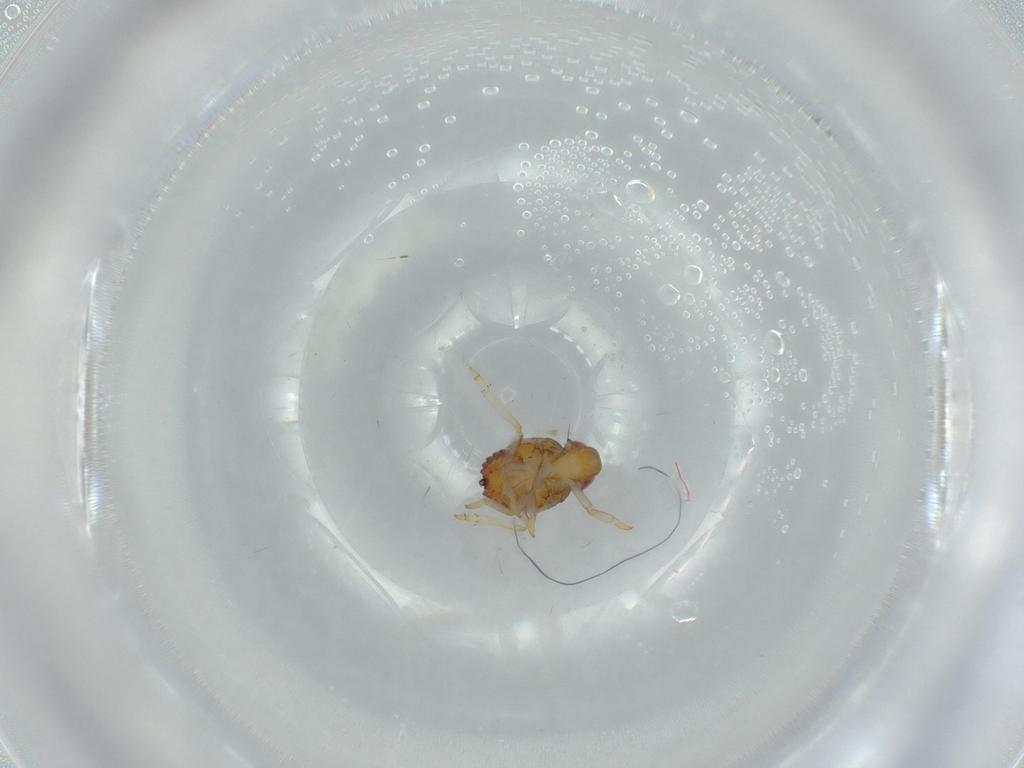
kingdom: Animalia
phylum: Arthropoda
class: Insecta
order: Hemiptera
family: Issidae
